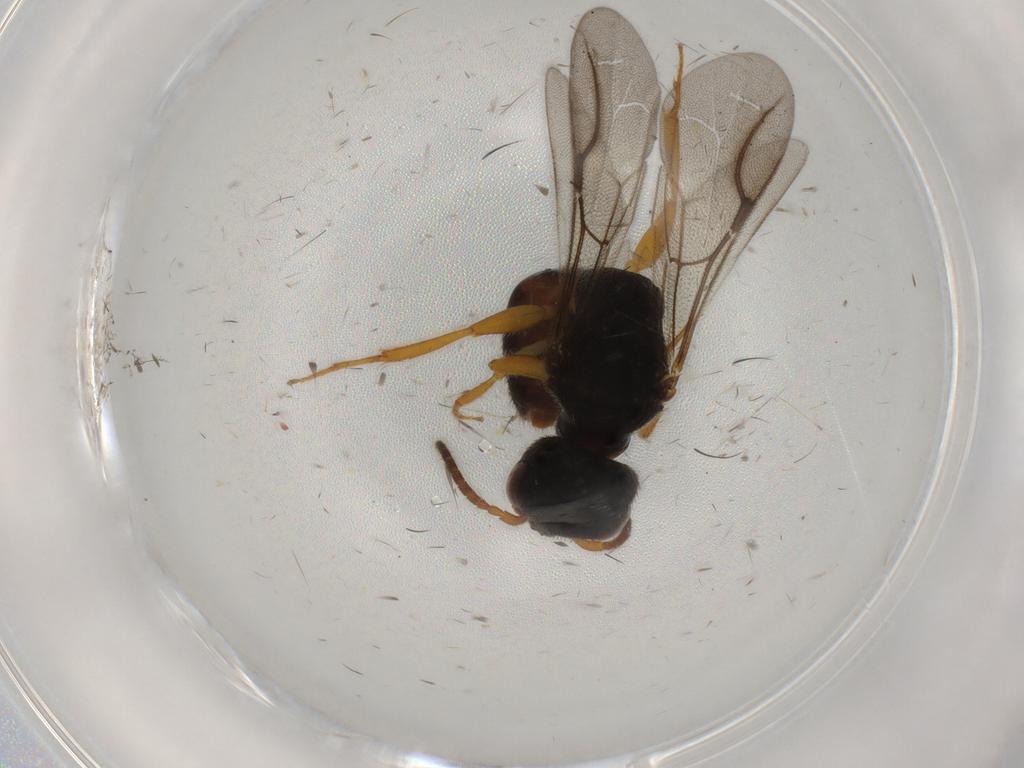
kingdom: Animalia
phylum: Arthropoda
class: Insecta
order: Hymenoptera
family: Bethylidae
